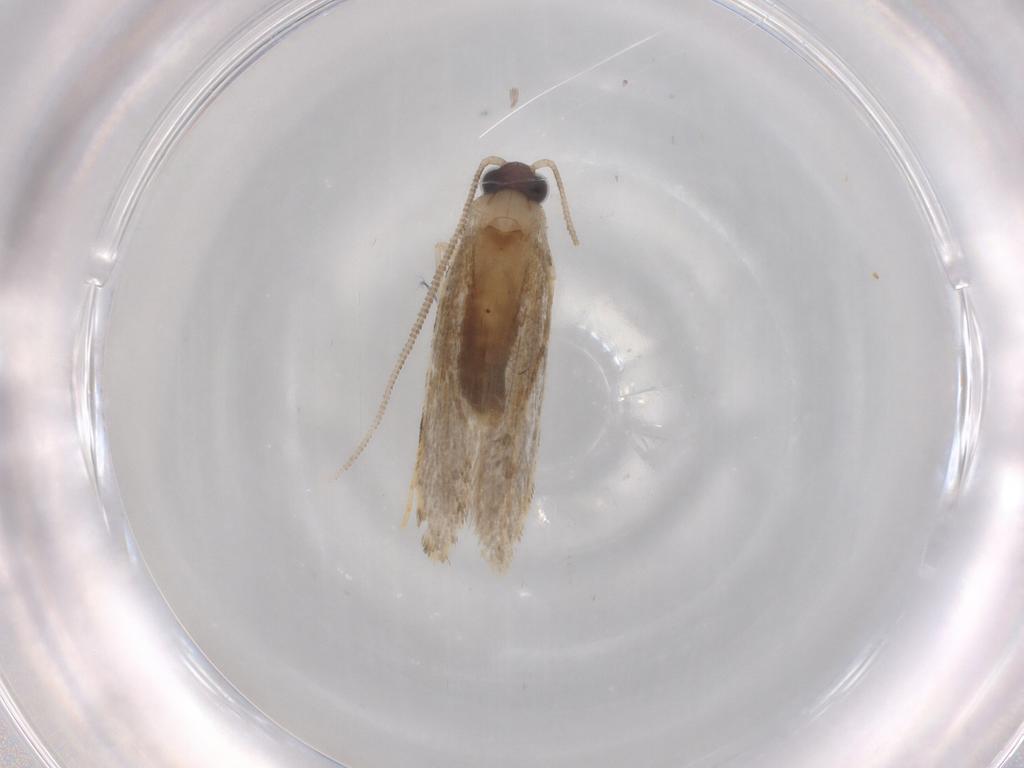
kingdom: Animalia
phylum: Arthropoda
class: Insecta
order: Lepidoptera
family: Tineidae
